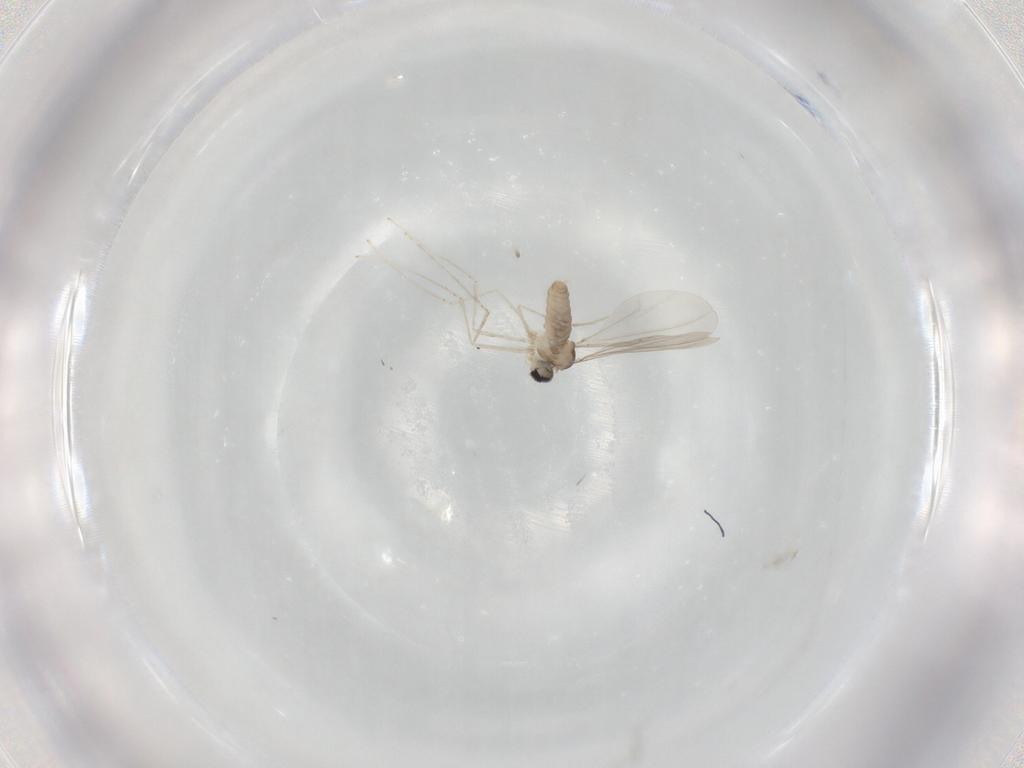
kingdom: Animalia
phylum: Arthropoda
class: Insecta
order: Diptera
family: Cecidomyiidae
